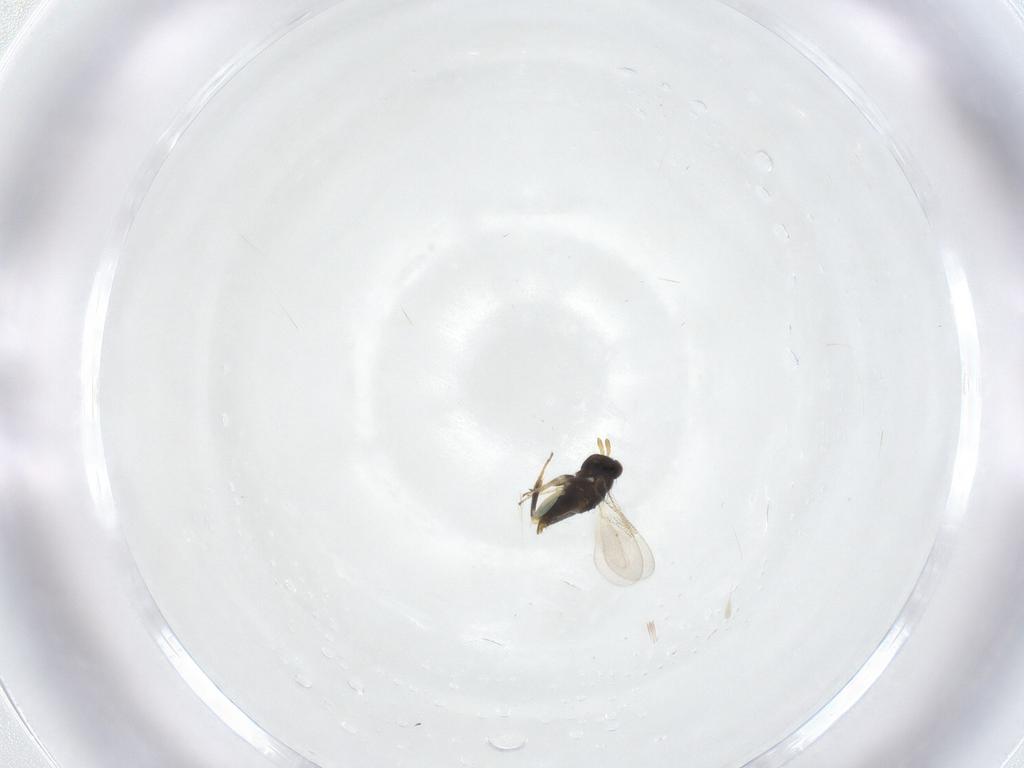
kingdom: Animalia
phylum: Arthropoda
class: Insecta
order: Hymenoptera
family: Aphelinidae
